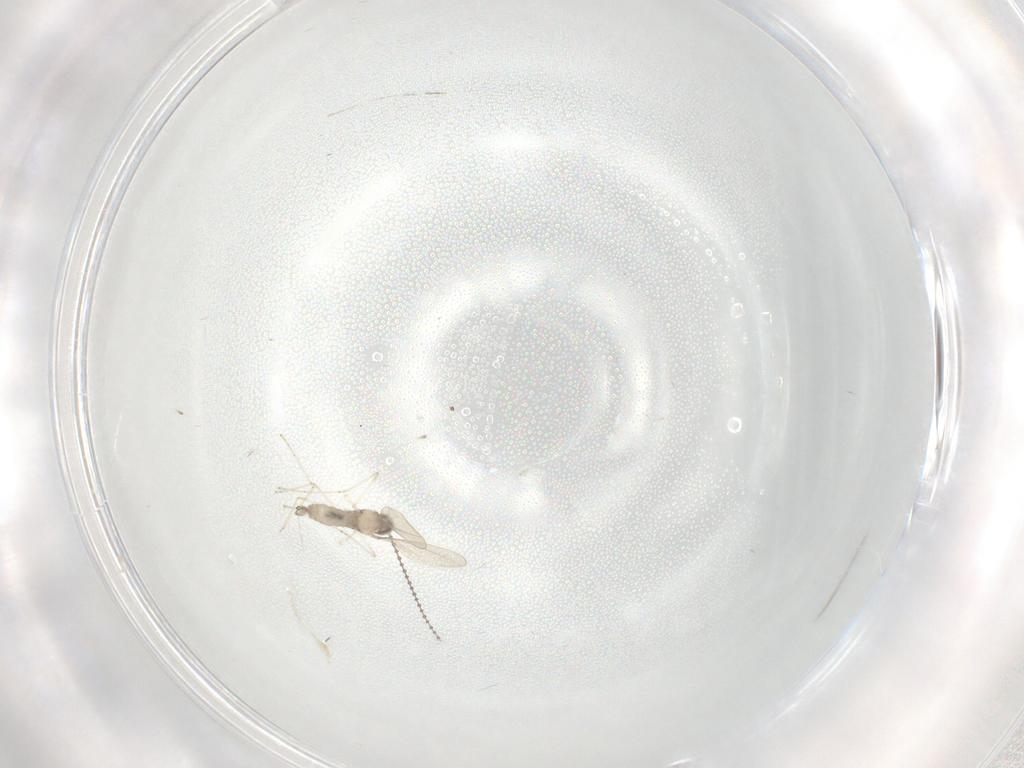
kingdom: Animalia
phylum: Arthropoda
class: Insecta
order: Diptera
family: Cecidomyiidae
